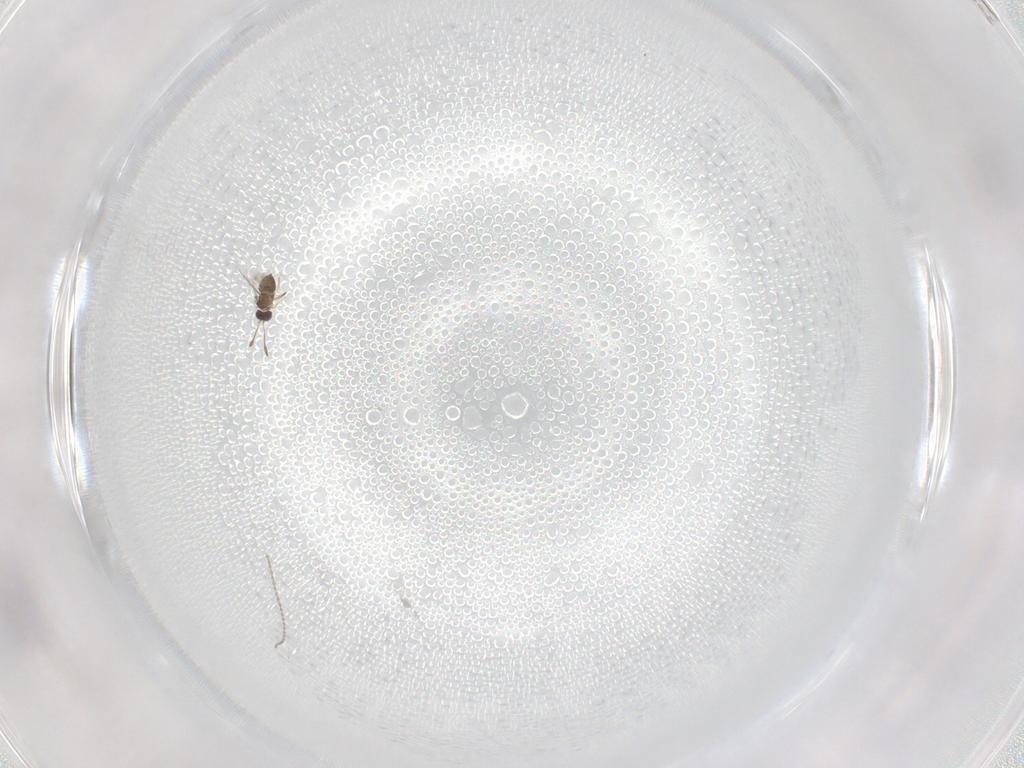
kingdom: Animalia
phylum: Arthropoda
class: Insecta
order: Hymenoptera
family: Eulophidae
